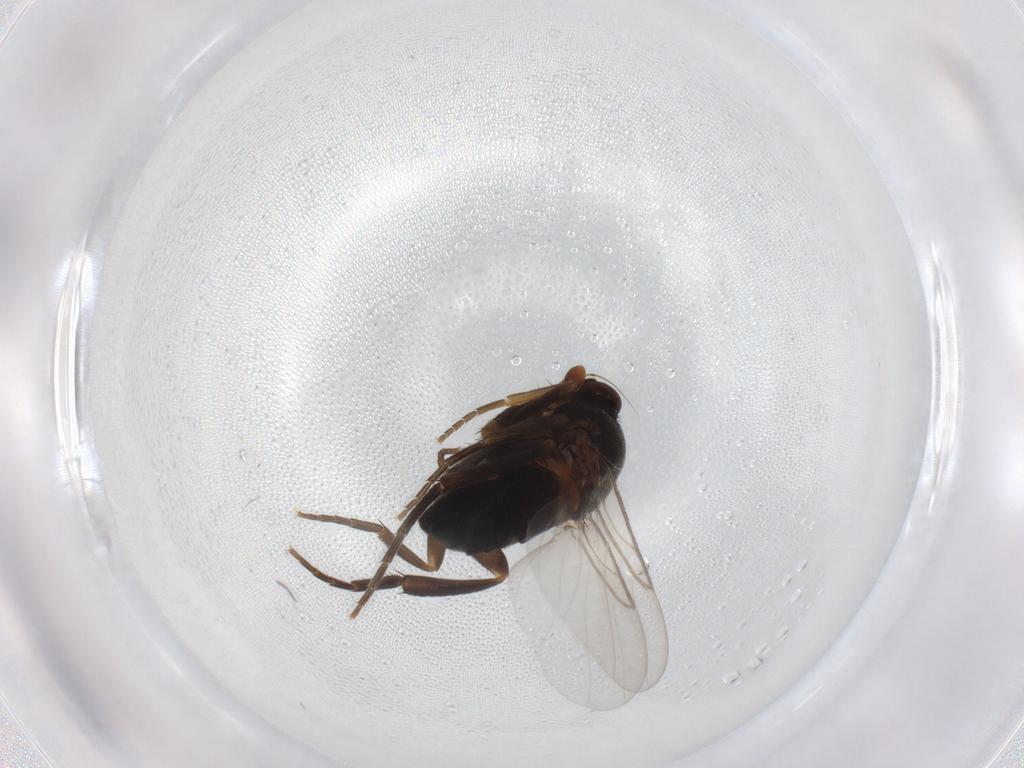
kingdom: Animalia
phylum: Arthropoda
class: Insecta
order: Diptera
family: Phoridae
